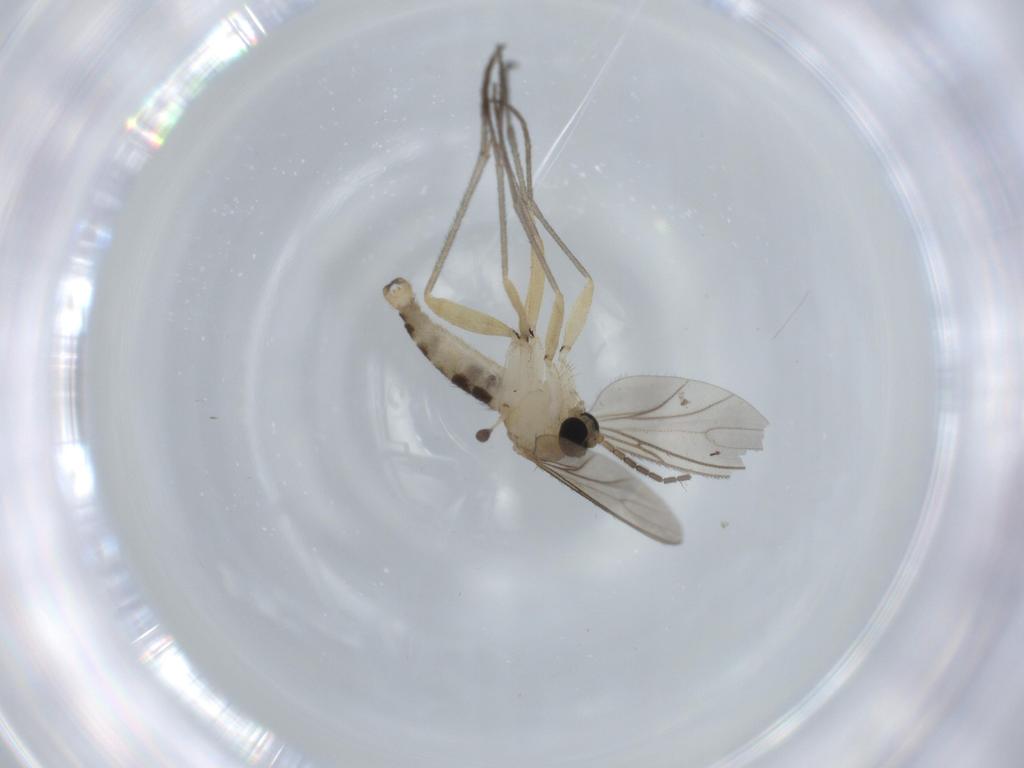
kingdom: Animalia
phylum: Arthropoda
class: Insecta
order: Diptera
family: Sciaridae
